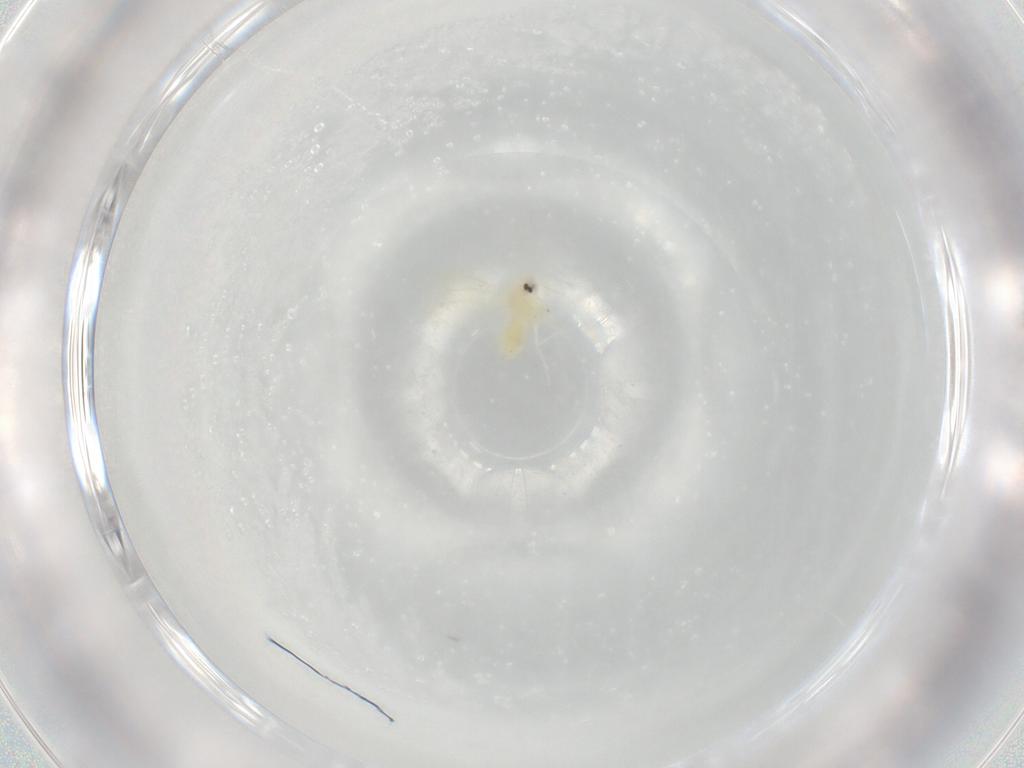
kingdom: Animalia
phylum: Arthropoda
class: Insecta
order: Hemiptera
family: Aleyrodidae
